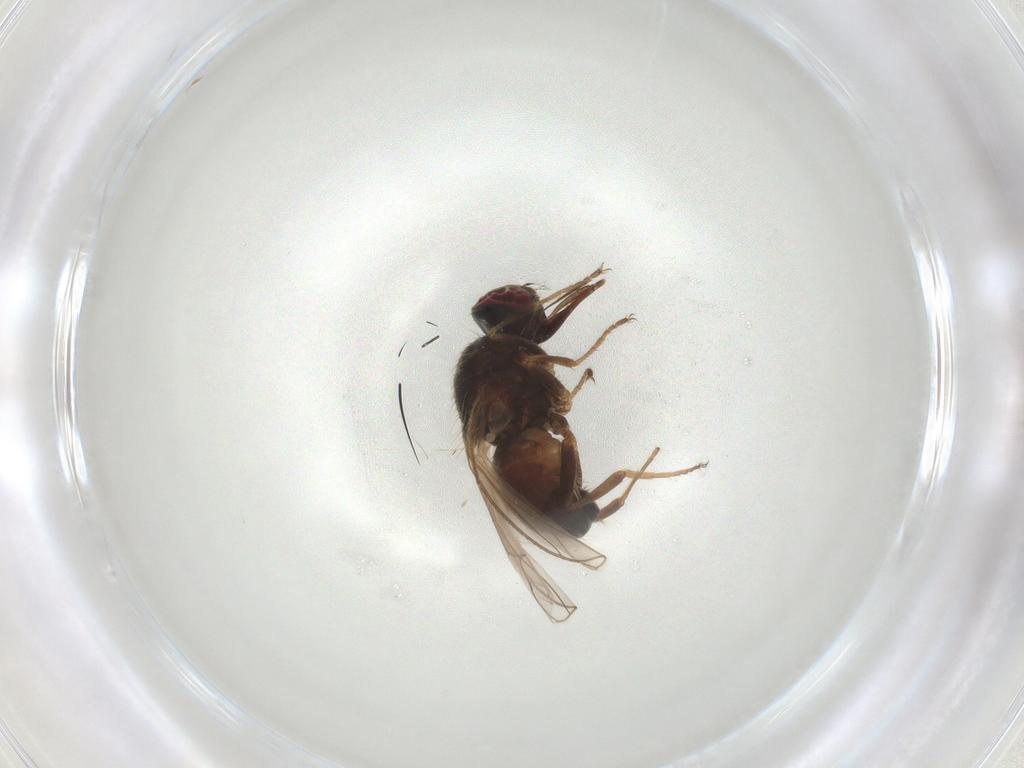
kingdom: Animalia
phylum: Arthropoda
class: Insecta
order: Diptera
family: Muscidae
